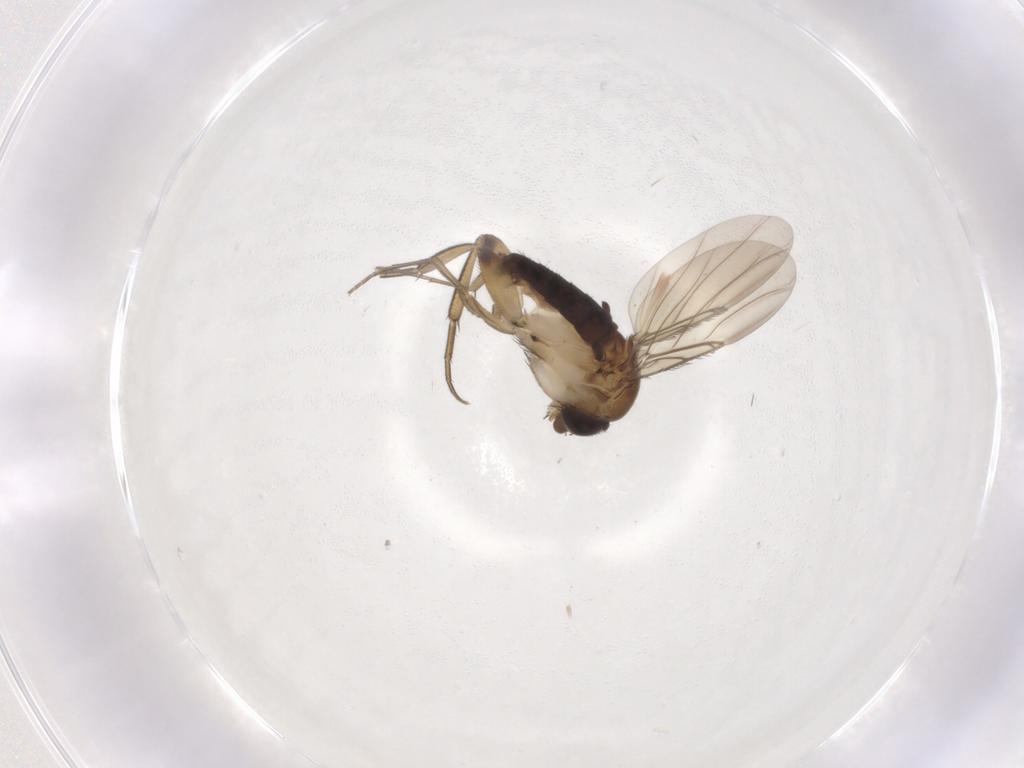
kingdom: Animalia
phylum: Arthropoda
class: Insecta
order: Diptera
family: Phoridae
